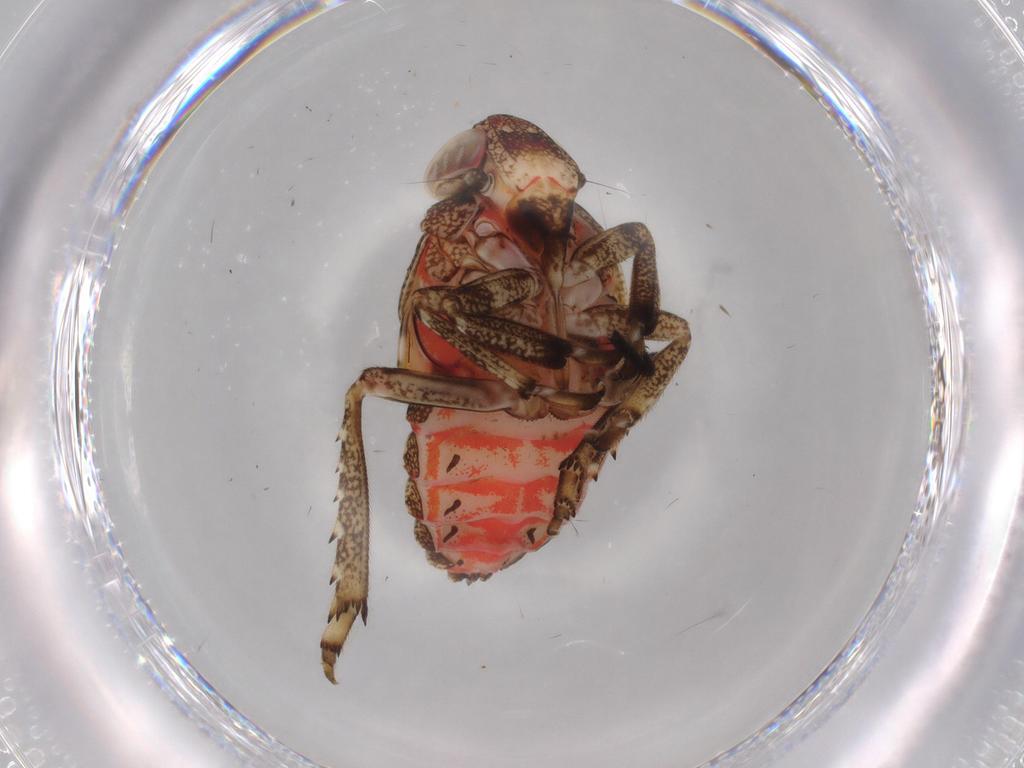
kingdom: Animalia
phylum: Arthropoda
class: Insecta
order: Hemiptera
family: Issidae
